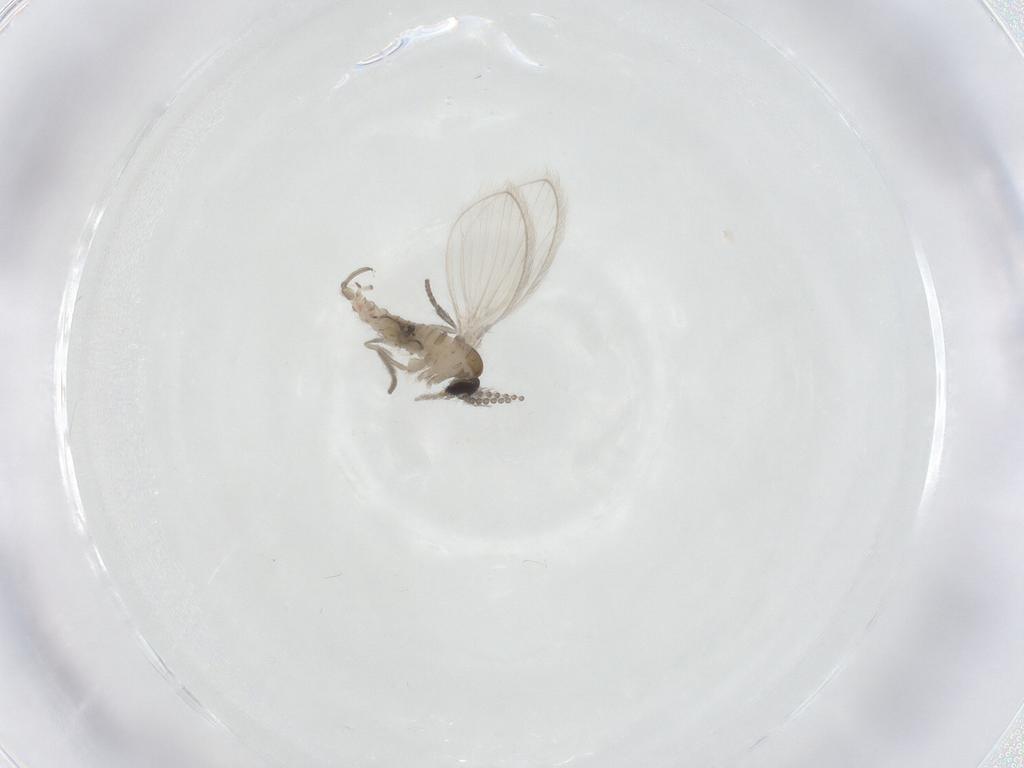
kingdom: Animalia
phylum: Arthropoda
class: Insecta
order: Diptera
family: Psychodidae
